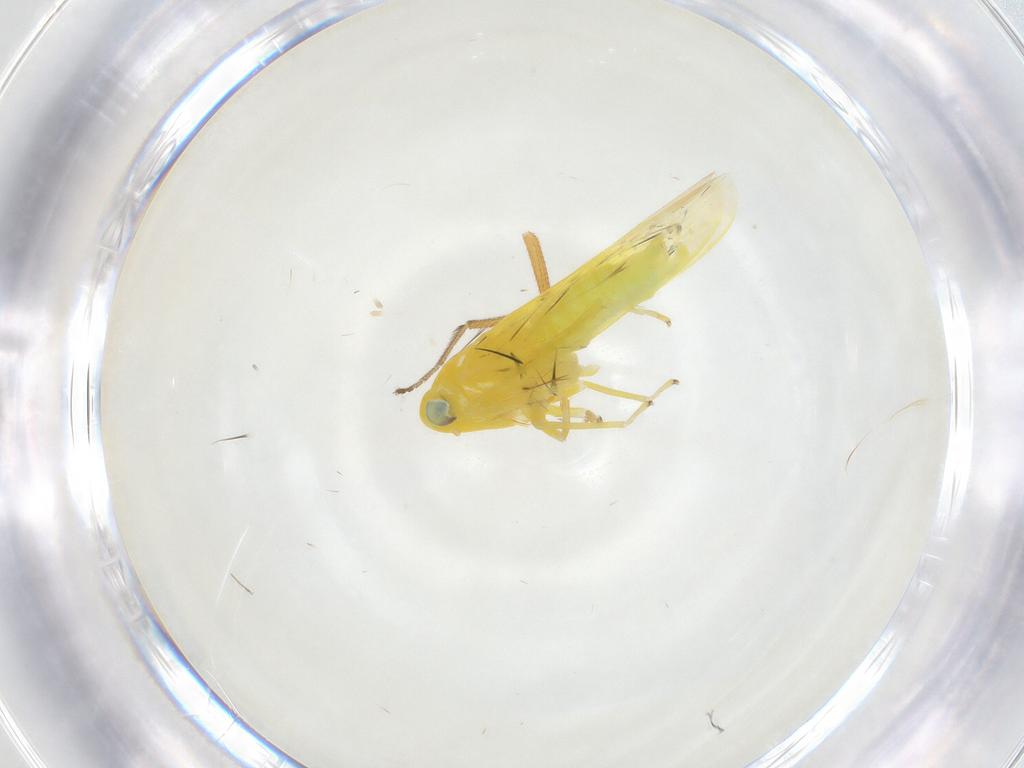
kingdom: Animalia
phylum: Arthropoda
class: Insecta
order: Hemiptera
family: Cicadellidae
